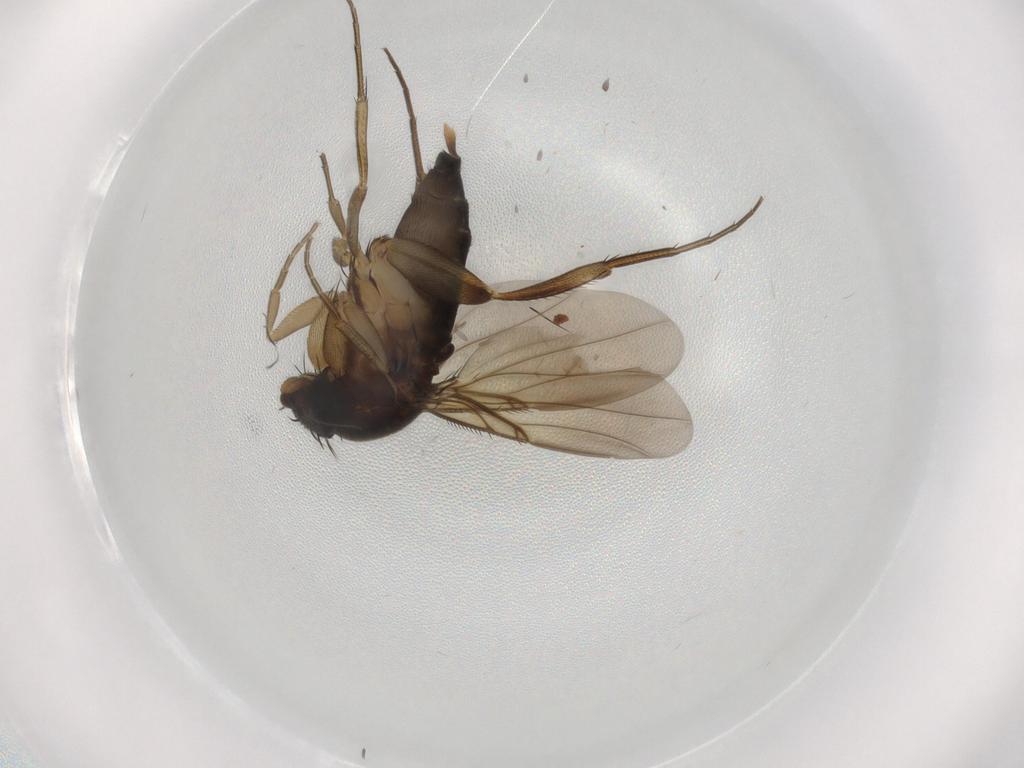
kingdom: Animalia
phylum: Arthropoda
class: Insecta
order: Diptera
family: Phoridae
